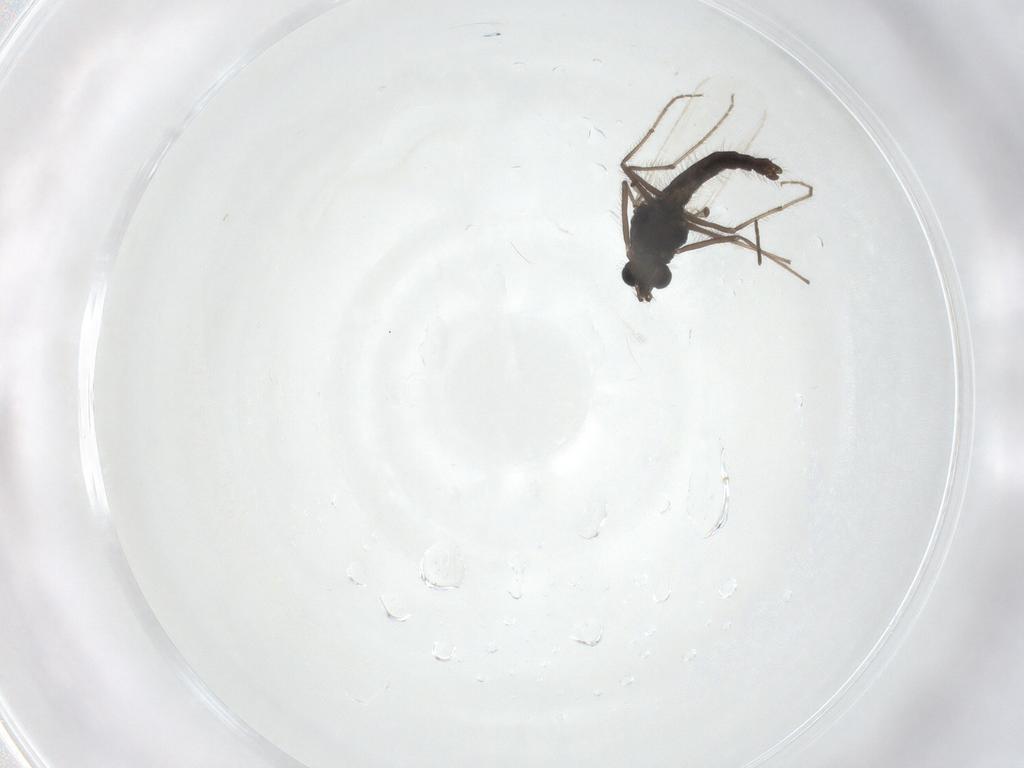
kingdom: Animalia
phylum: Arthropoda
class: Insecta
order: Diptera
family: Chironomidae
